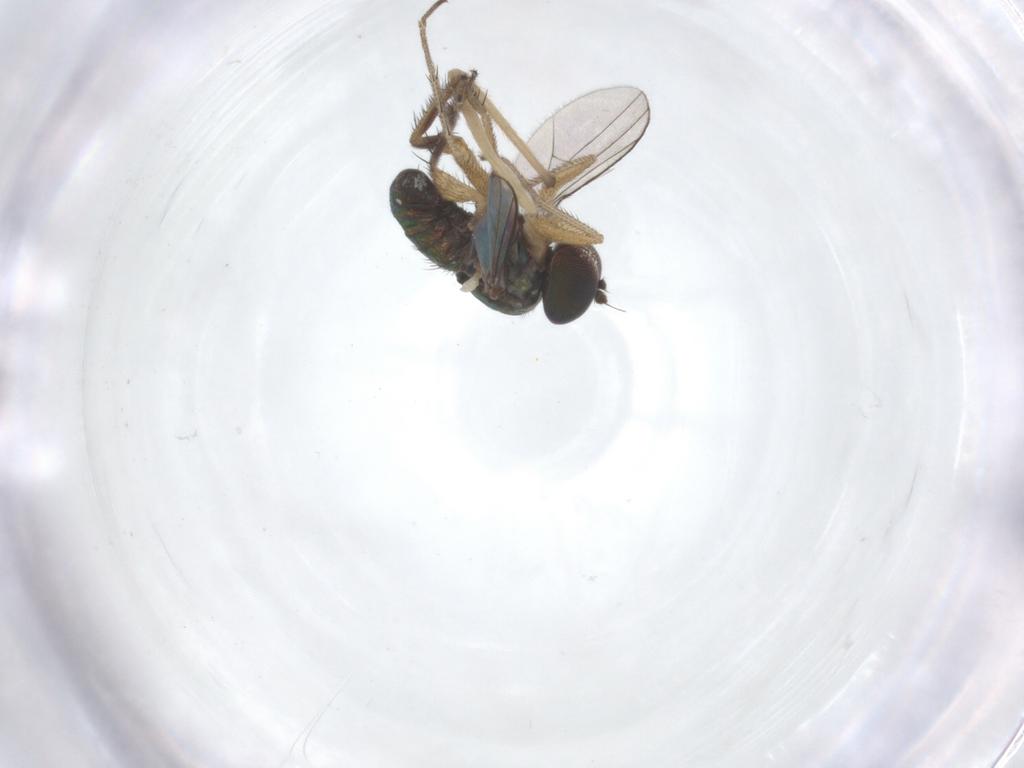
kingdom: Animalia
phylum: Arthropoda
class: Insecta
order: Diptera
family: Dolichopodidae
